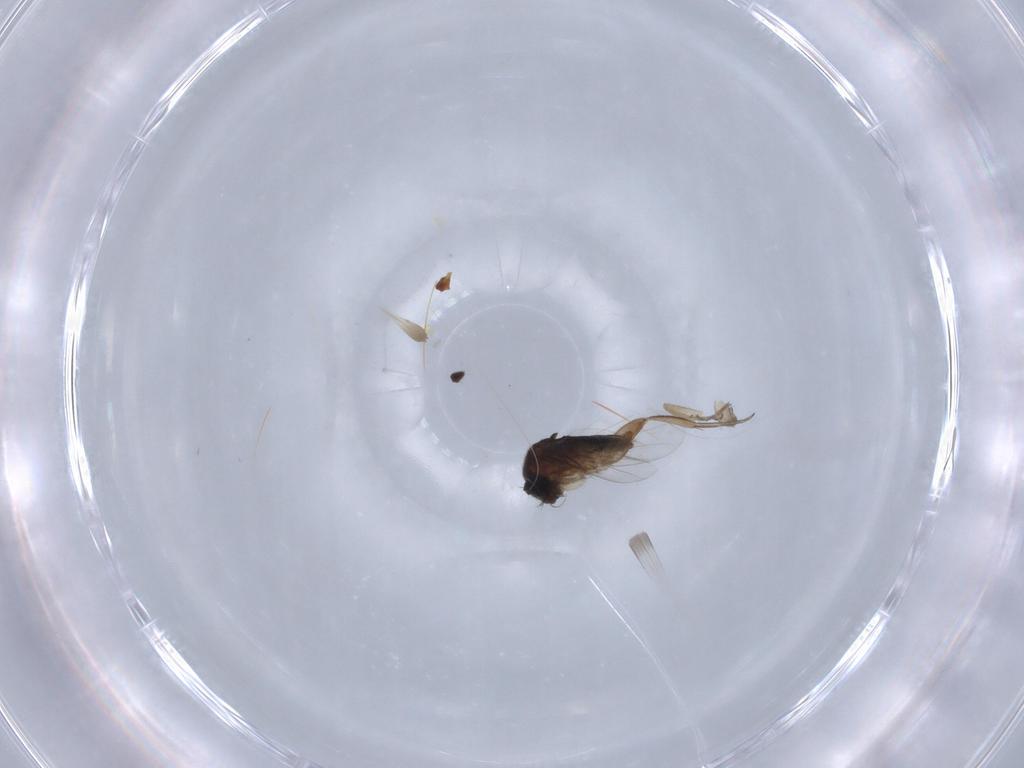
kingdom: Animalia
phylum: Arthropoda
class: Insecta
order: Diptera
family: Phoridae
